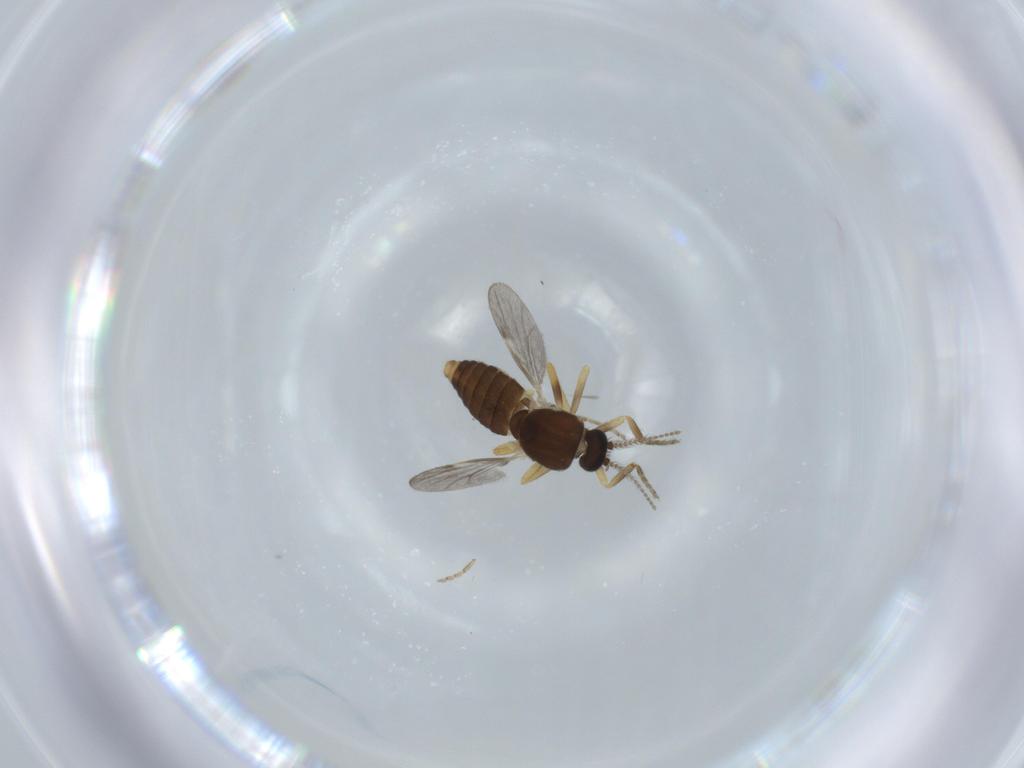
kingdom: Animalia
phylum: Arthropoda
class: Insecta
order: Diptera
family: Ceratopogonidae
